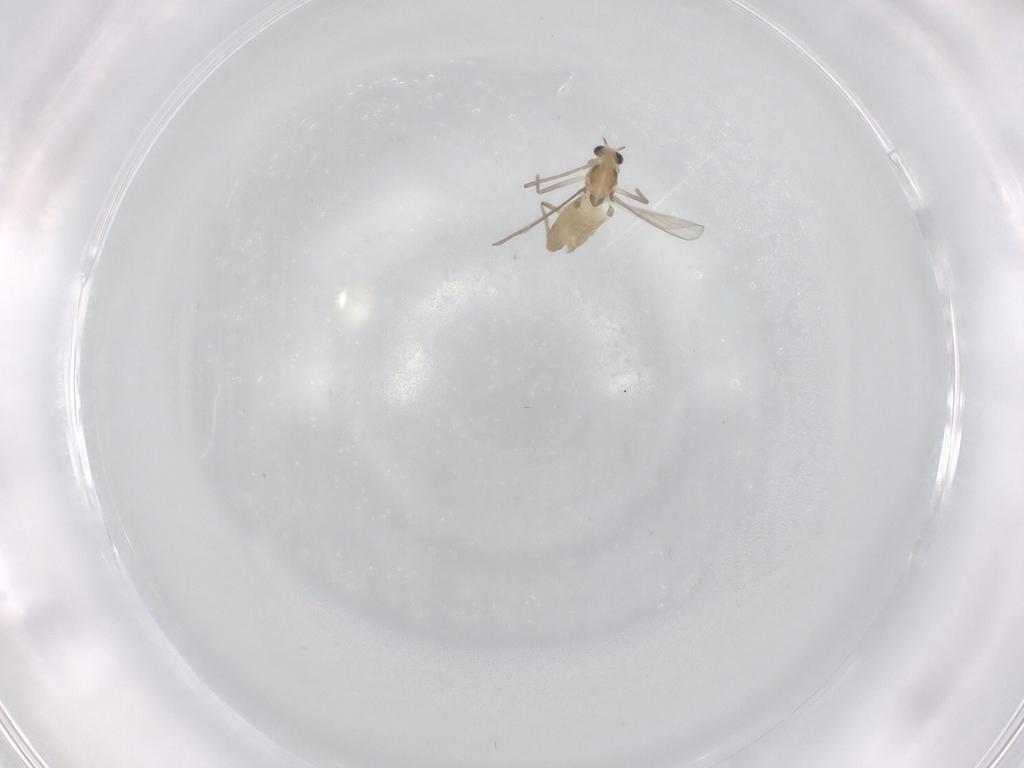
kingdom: Animalia
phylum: Arthropoda
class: Insecta
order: Diptera
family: Chironomidae
